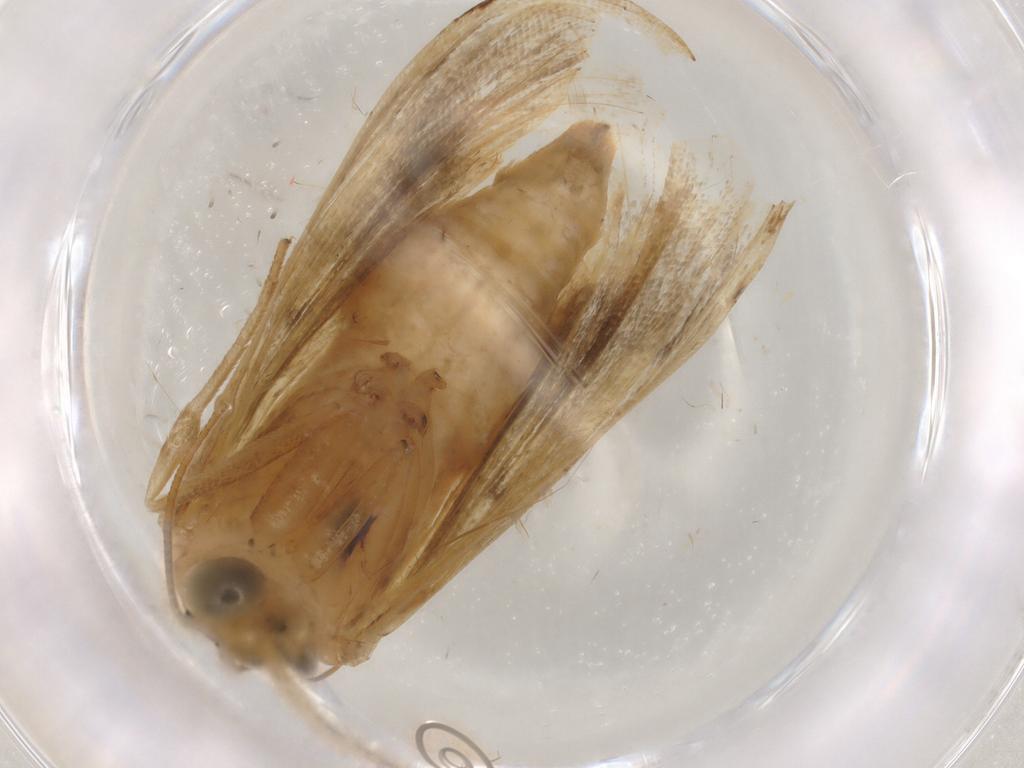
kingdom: Animalia
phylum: Arthropoda
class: Insecta
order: Lepidoptera
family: Crambidae
